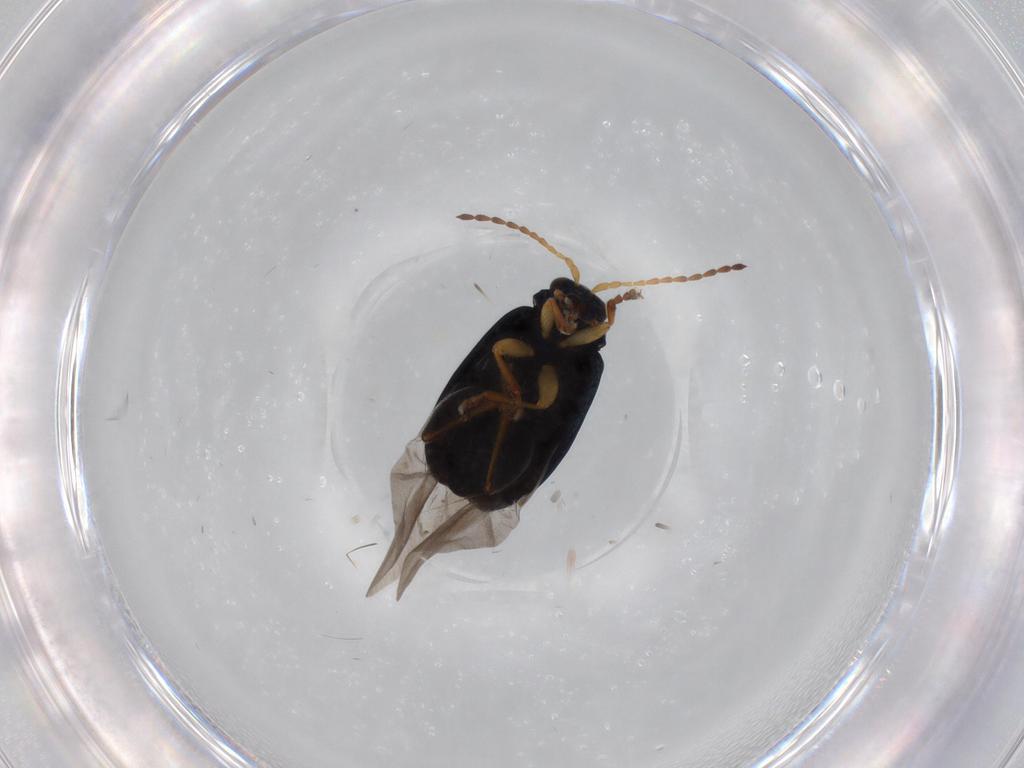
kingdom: Animalia
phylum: Arthropoda
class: Insecta
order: Coleoptera
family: Chrysomelidae
